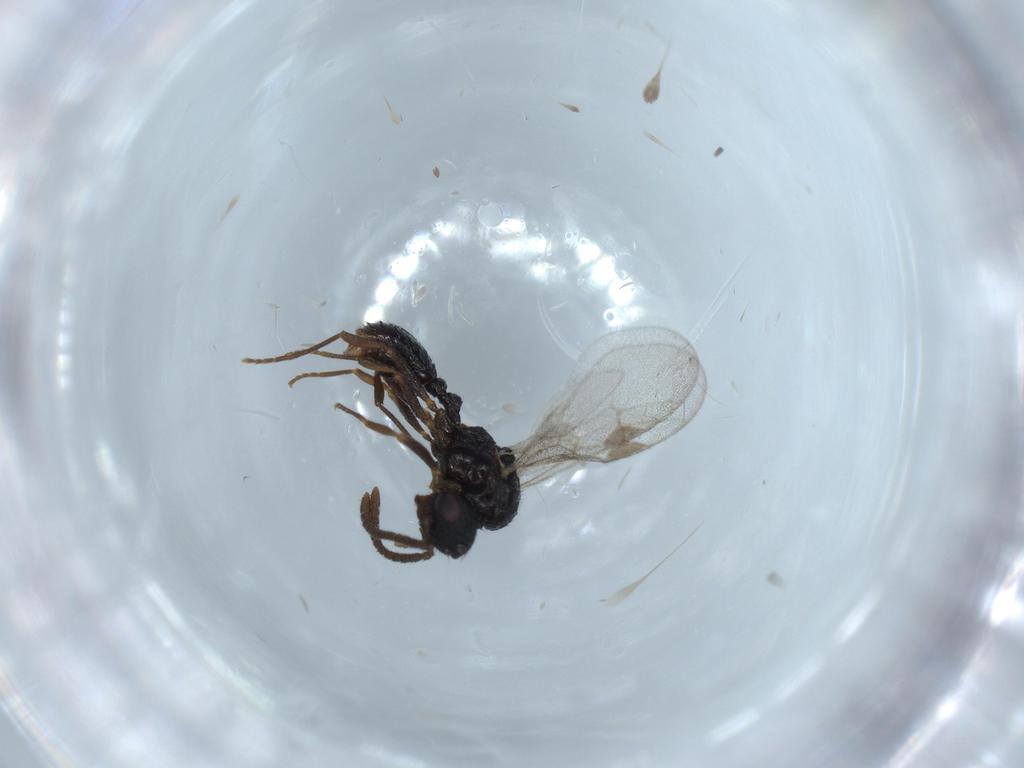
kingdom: Animalia
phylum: Arthropoda
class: Insecta
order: Hymenoptera
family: Formicidae
